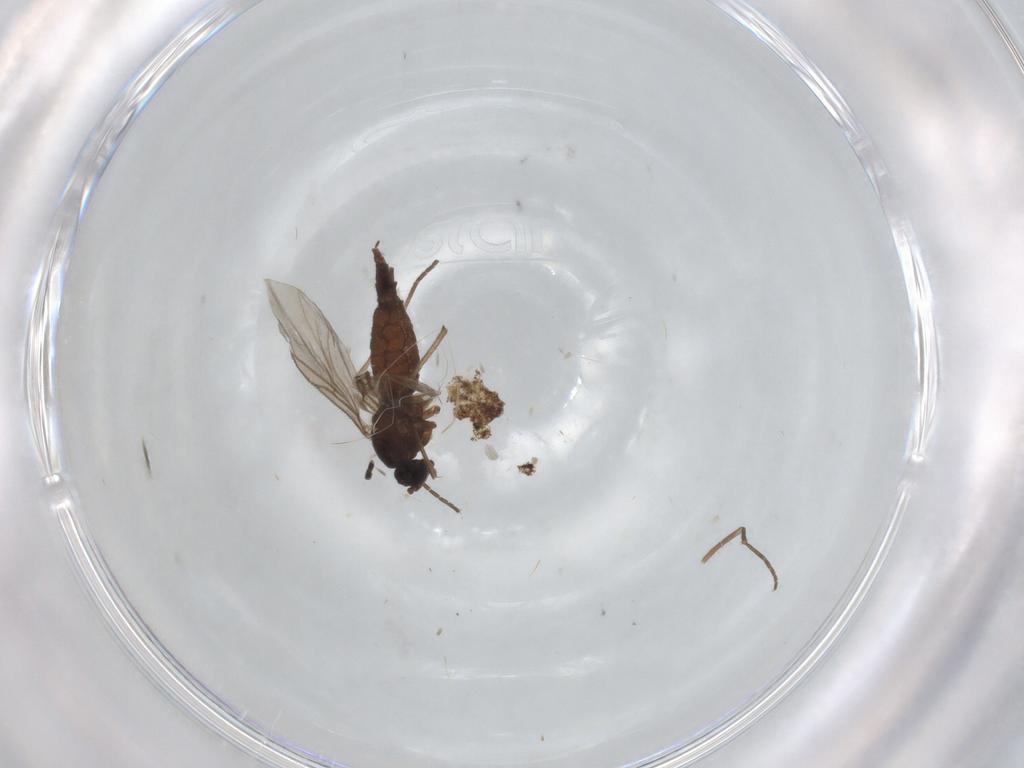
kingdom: Animalia
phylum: Arthropoda
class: Insecta
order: Diptera
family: Sciaridae
